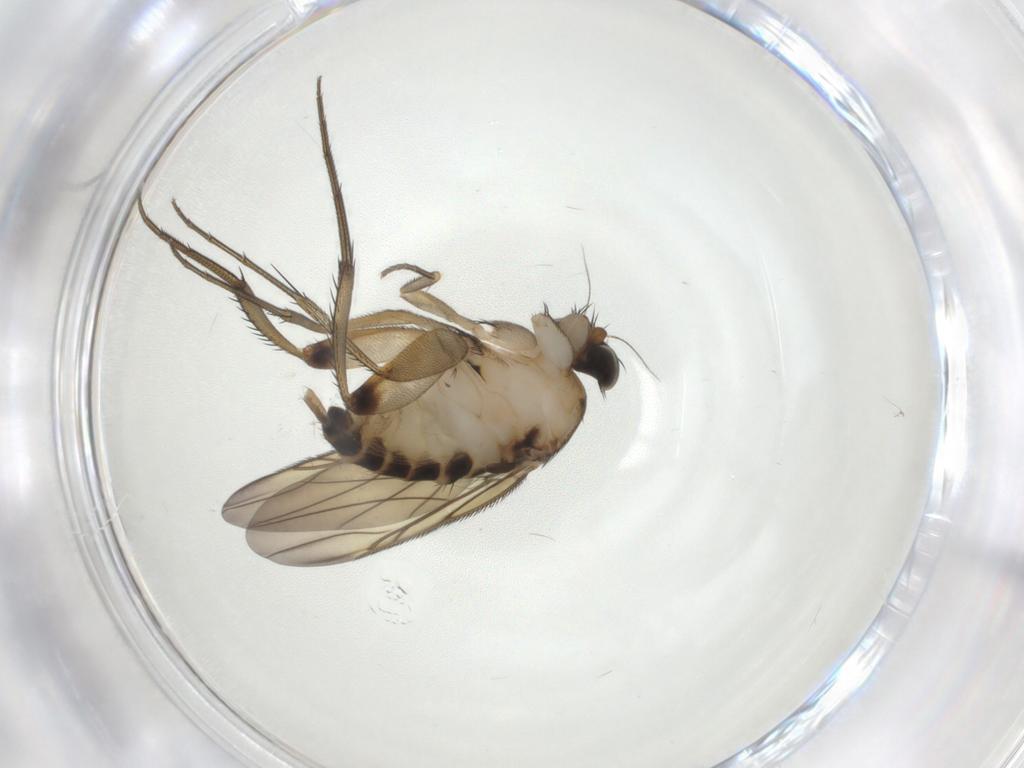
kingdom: Animalia
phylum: Arthropoda
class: Insecta
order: Diptera
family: Phoridae
